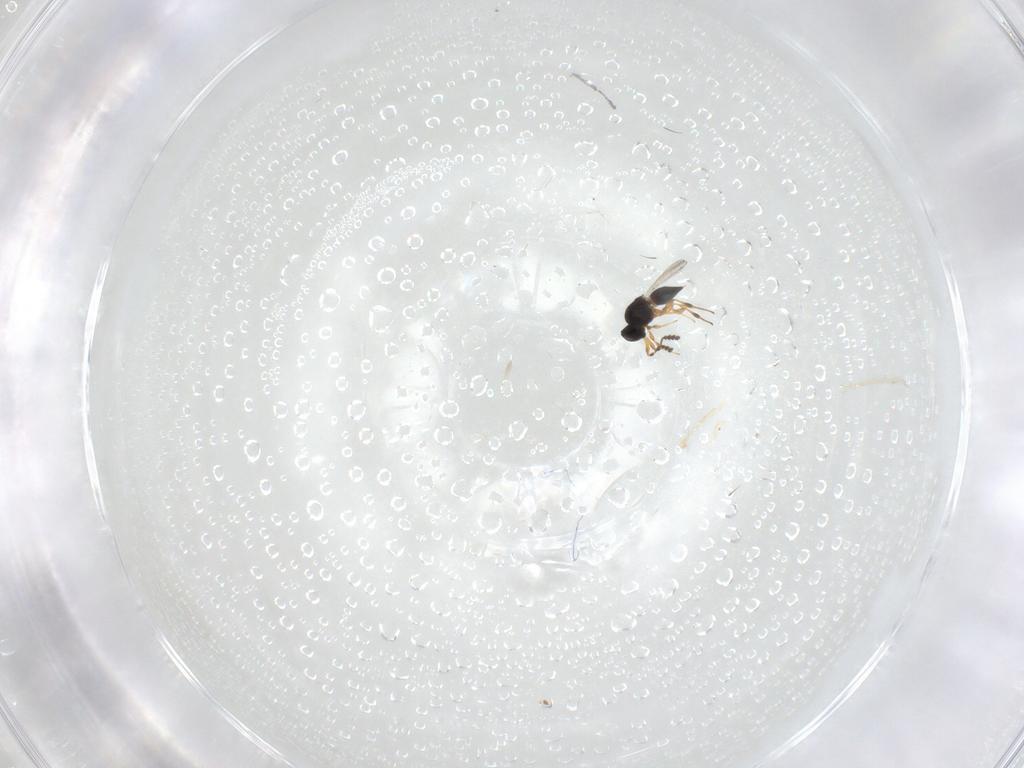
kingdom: Animalia
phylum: Arthropoda
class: Insecta
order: Hymenoptera
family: Platygastridae
